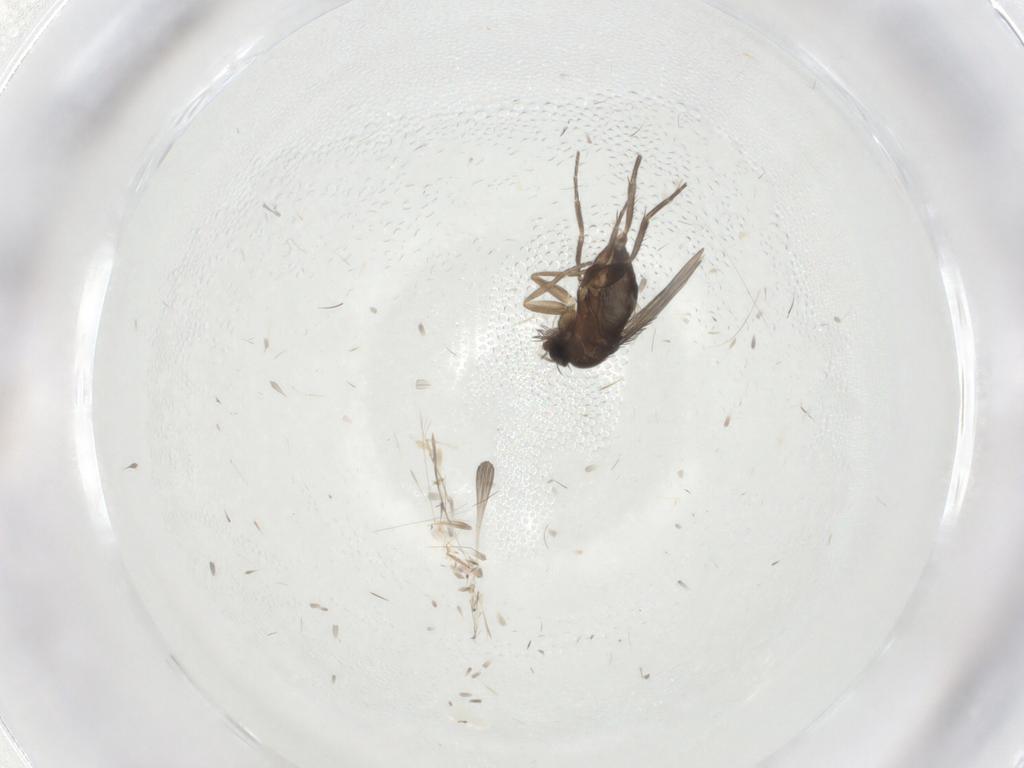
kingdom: Animalia
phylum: Arthropoda
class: Insecta
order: Diptera
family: Phoridae
